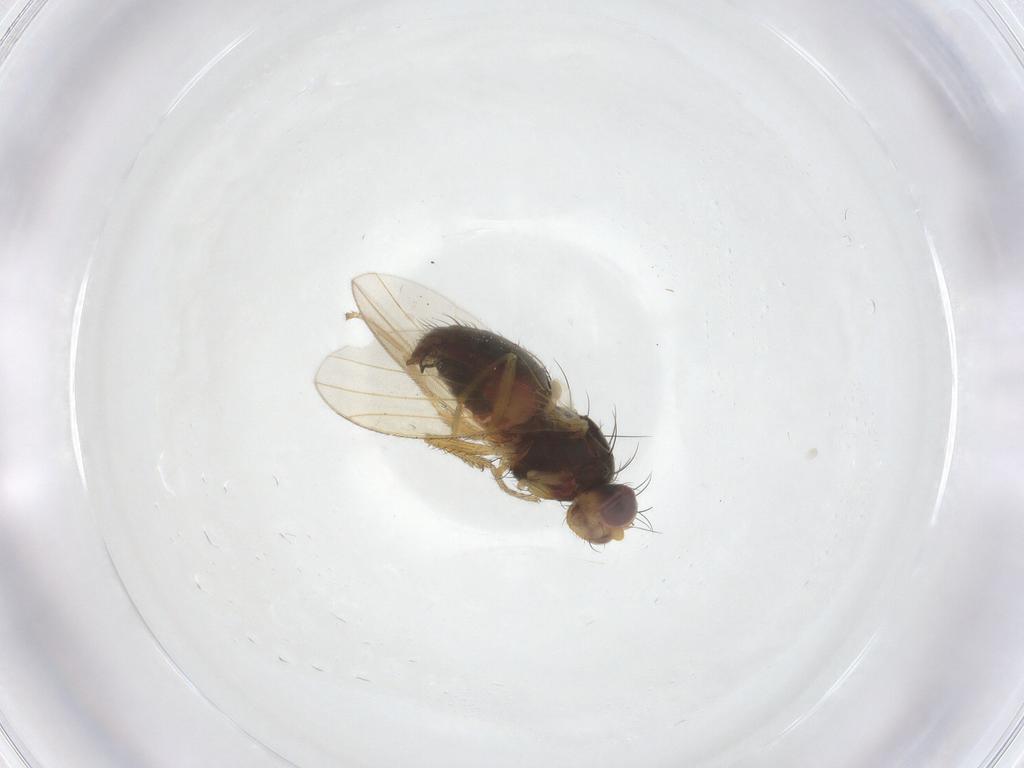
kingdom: Animalia
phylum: Arthropoda
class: Insecta
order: Diptera
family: Heleomyzidae
